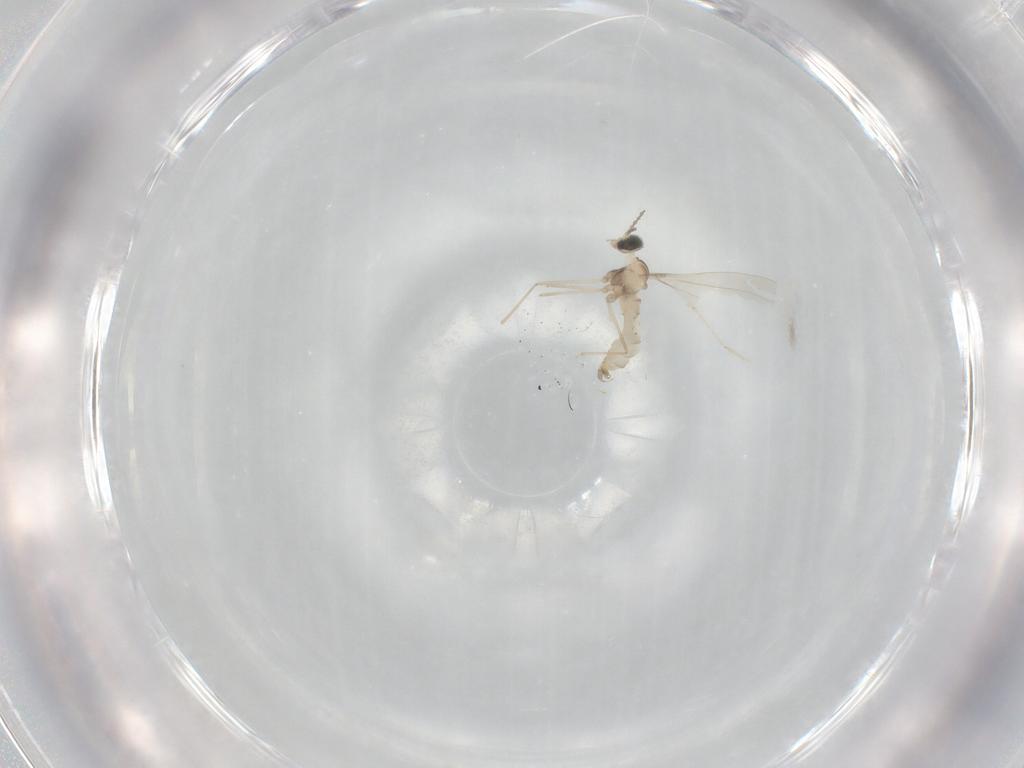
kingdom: Animalia
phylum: Arthropoda
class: Insecta
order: Diptera
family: Cecidomyiidae
